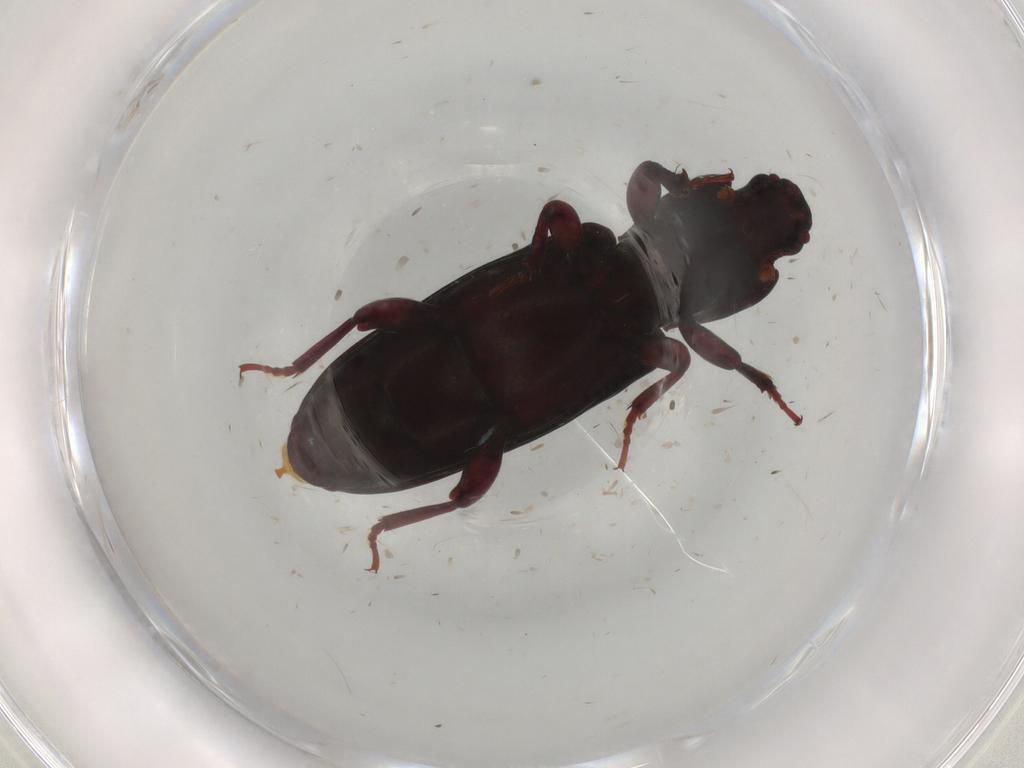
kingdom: Animalia
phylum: Arthropoda
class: Insecta
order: Coleoptera
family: Endomychidae
